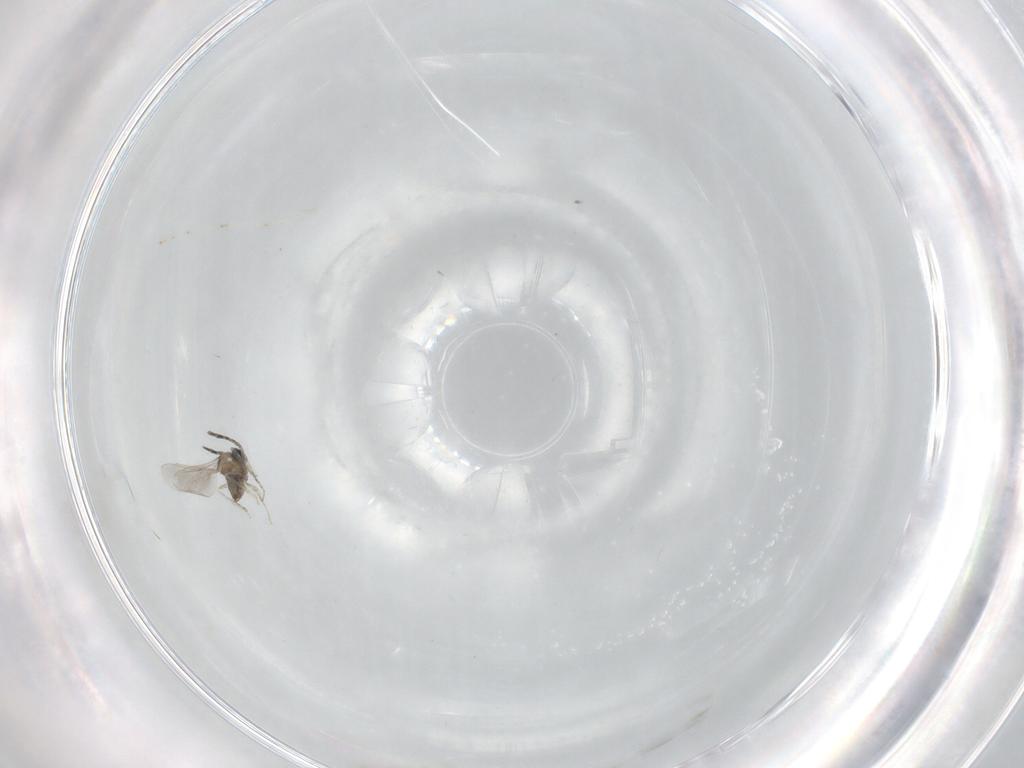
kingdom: Animalia
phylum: Arthropoda
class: Insecta
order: Diptera
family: Cecidomyiidae
